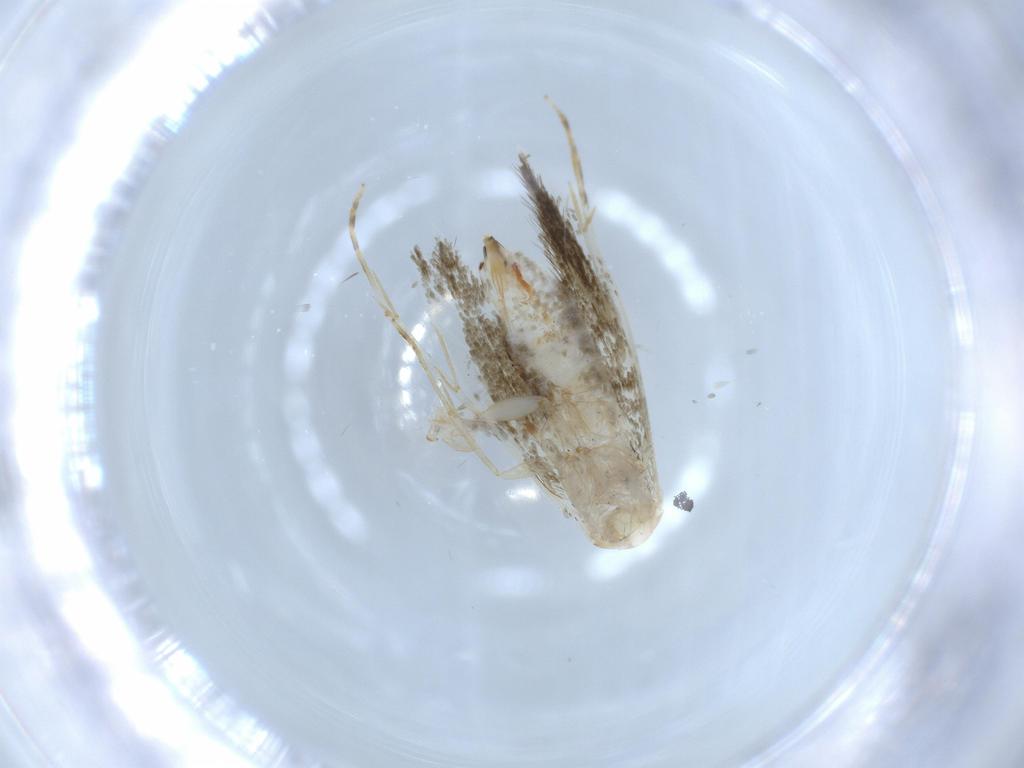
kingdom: Animalia
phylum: Arthropoda
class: Insecta
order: Lepidoptera
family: Tineidae
